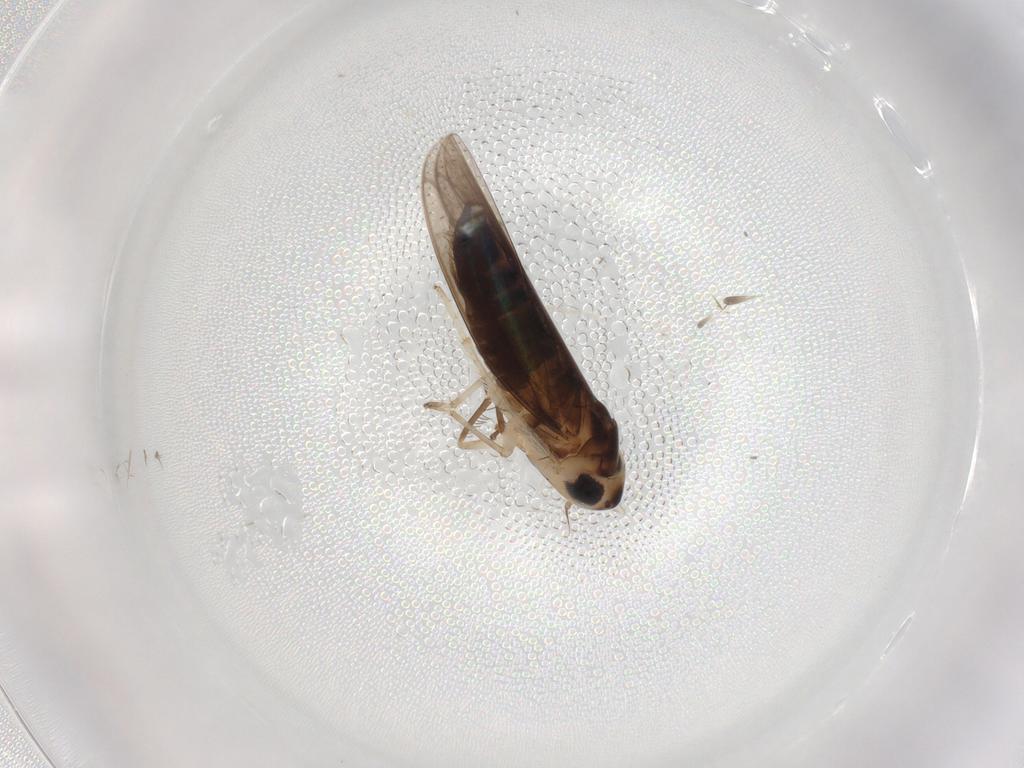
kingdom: Animalia
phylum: Arthropoda
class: Insecta
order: Hemiptera
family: Cicadellidae
